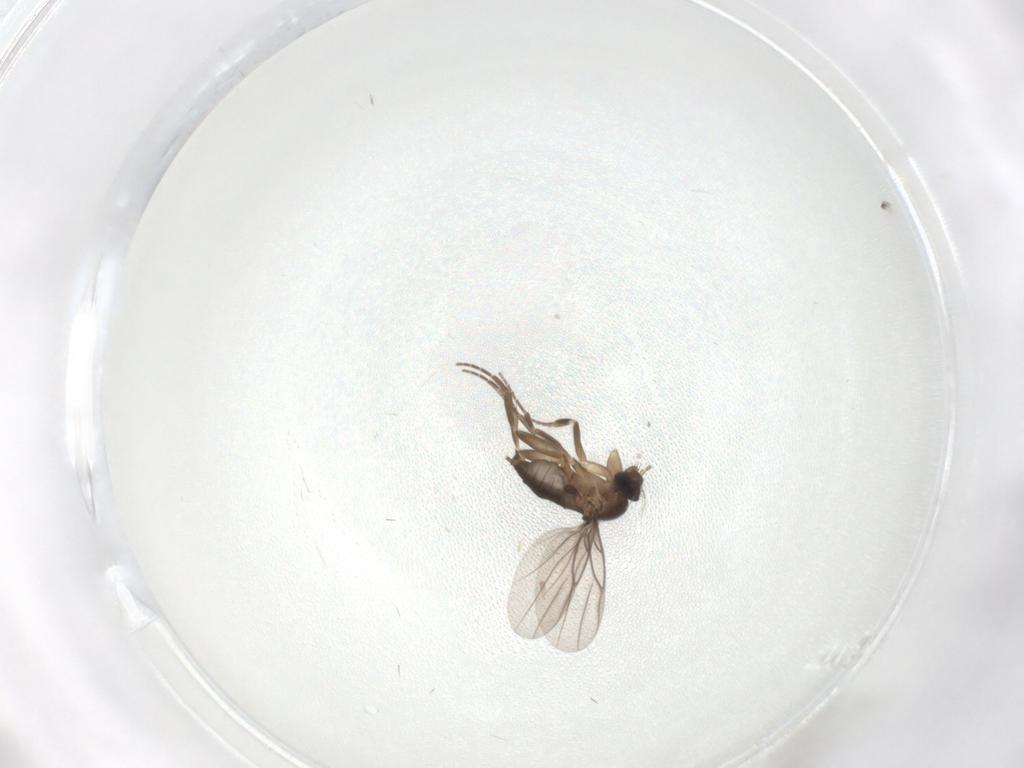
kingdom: Animalia
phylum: Arthropoda
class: Insecta
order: Diptera
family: Phoridae
